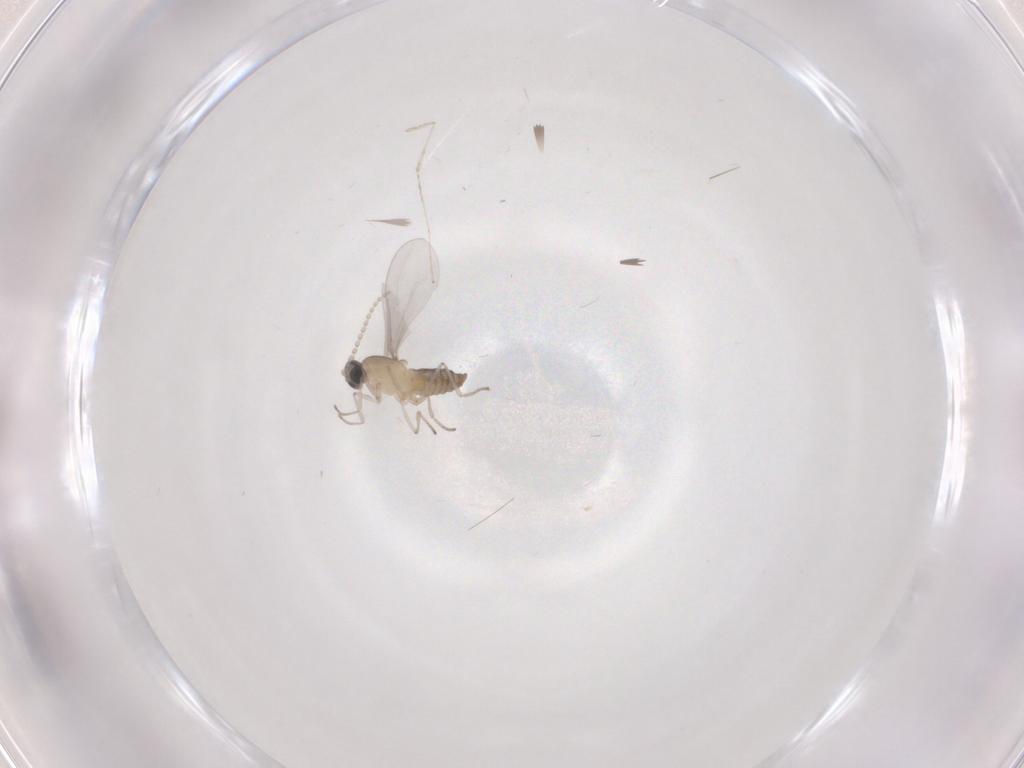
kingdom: Animalia
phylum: Arthropoda
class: Insecta
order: Diptera
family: Cecidomyiidae
